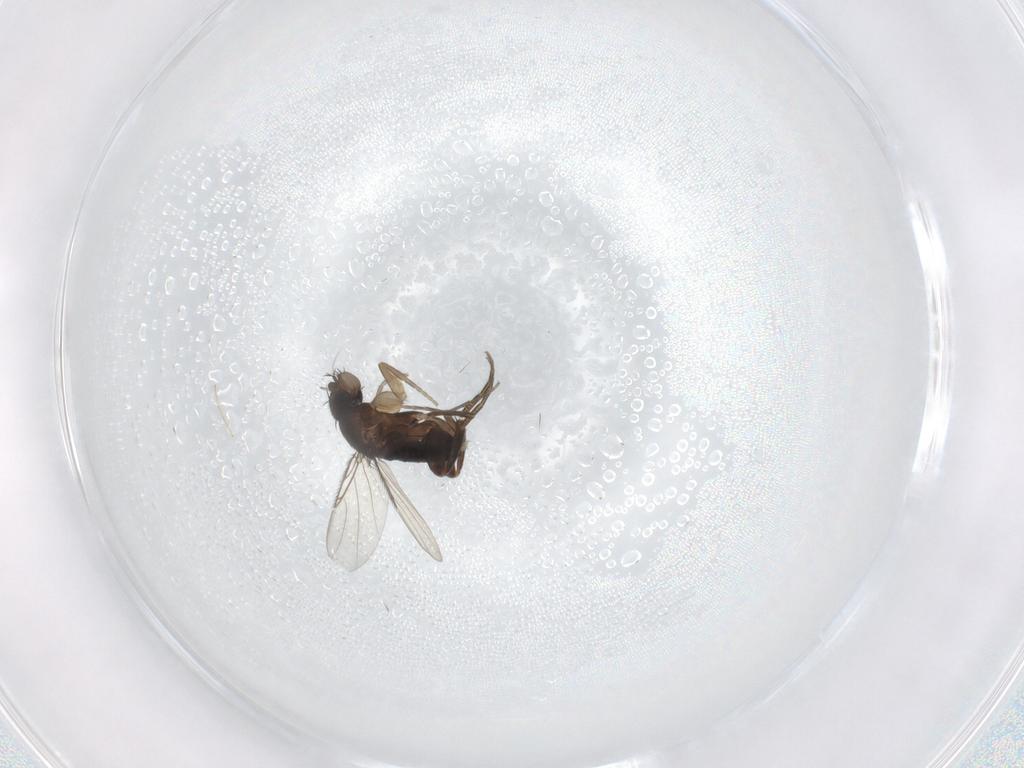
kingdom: Animalia
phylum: Arthropoda
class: Insecta
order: Diptera
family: Phoridae
